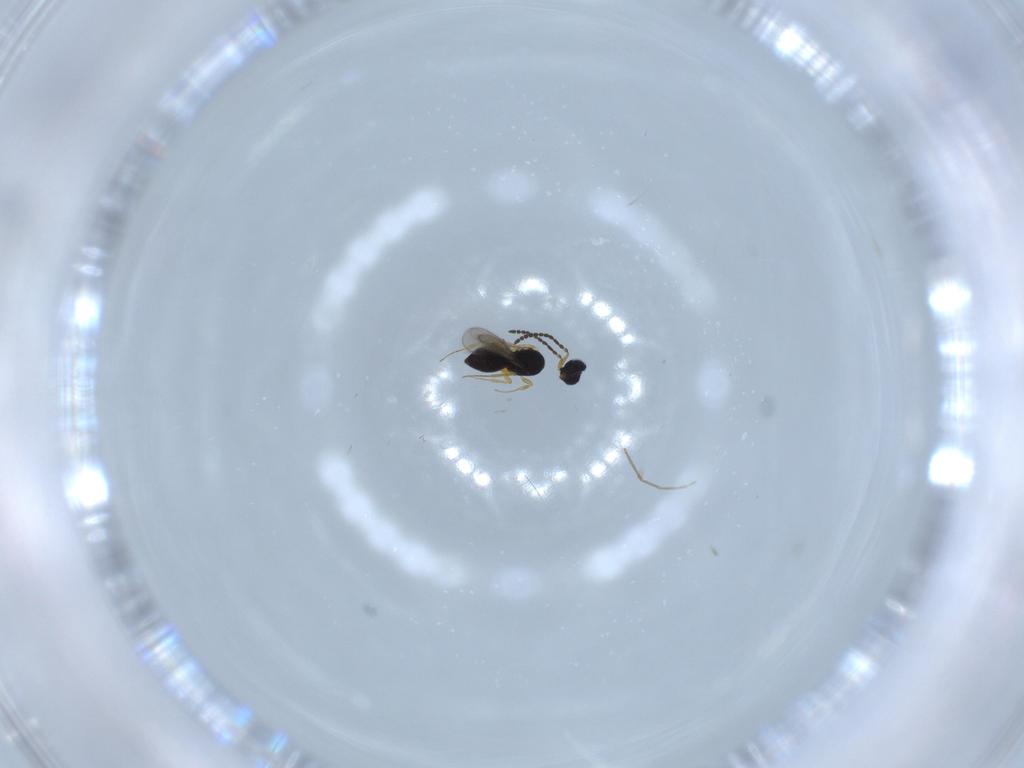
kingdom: Animalia
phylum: Arthropoda
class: Insecta
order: Hymenoptera
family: Scelionidae
